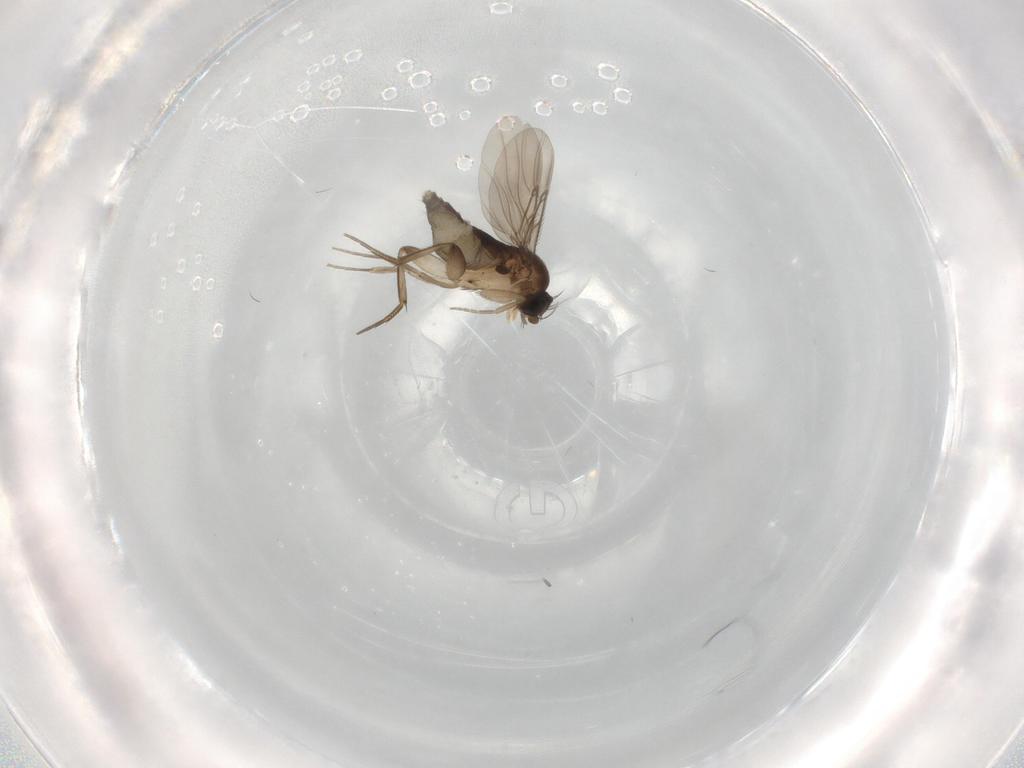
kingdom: Animalia
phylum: Arthropoda
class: Insecta
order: Diptera
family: Phoridae
